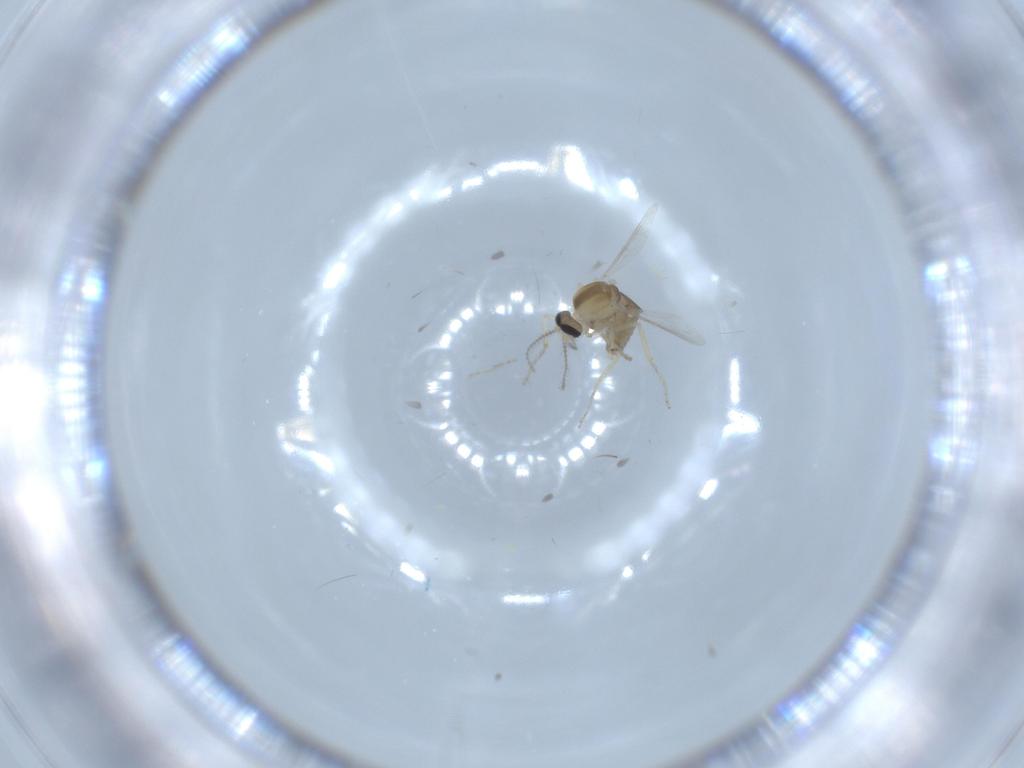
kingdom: Animalia
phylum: Arthropoda
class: Insecta
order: Diptera
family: Ceratopogonidae
